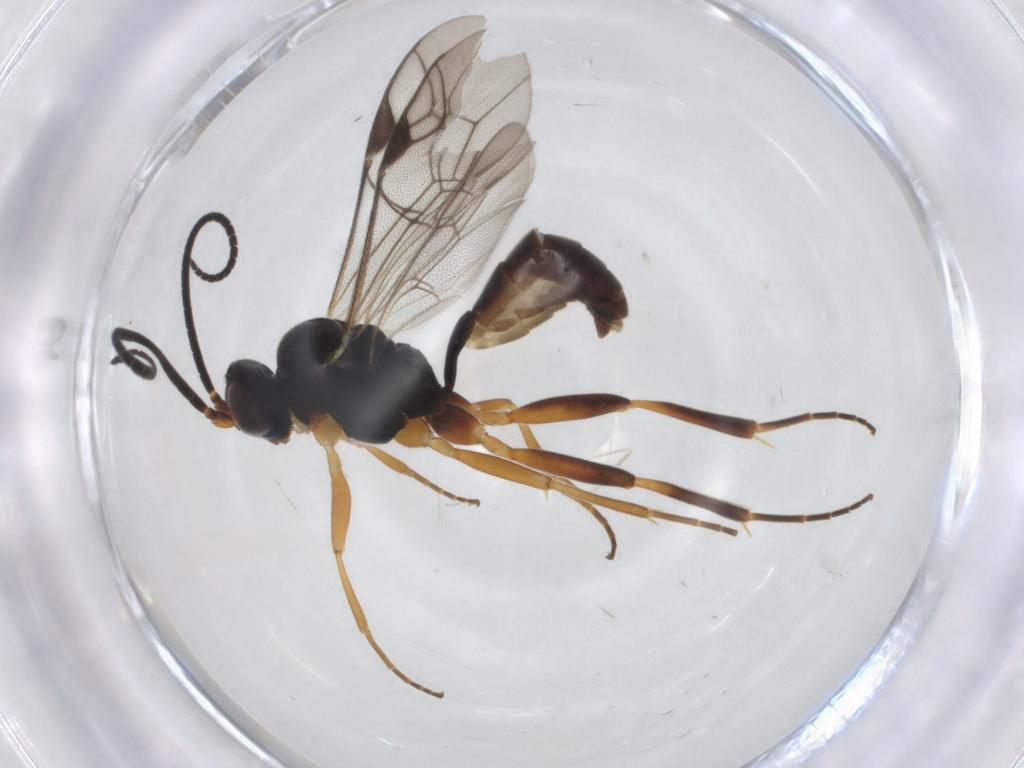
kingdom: Animalia
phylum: Arthropoda
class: Insecta
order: Hymenoptera
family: Ichneumonidae
